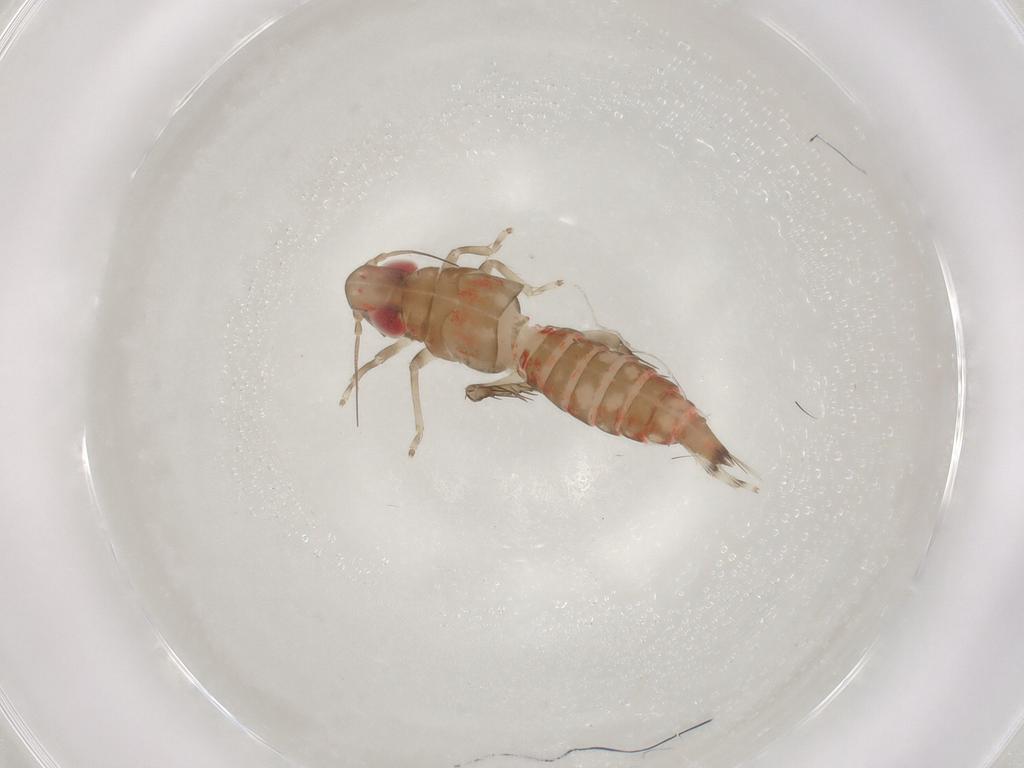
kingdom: Animalia
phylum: Arthropoda
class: Insecta
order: Hemiptera
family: Cicadellidae
